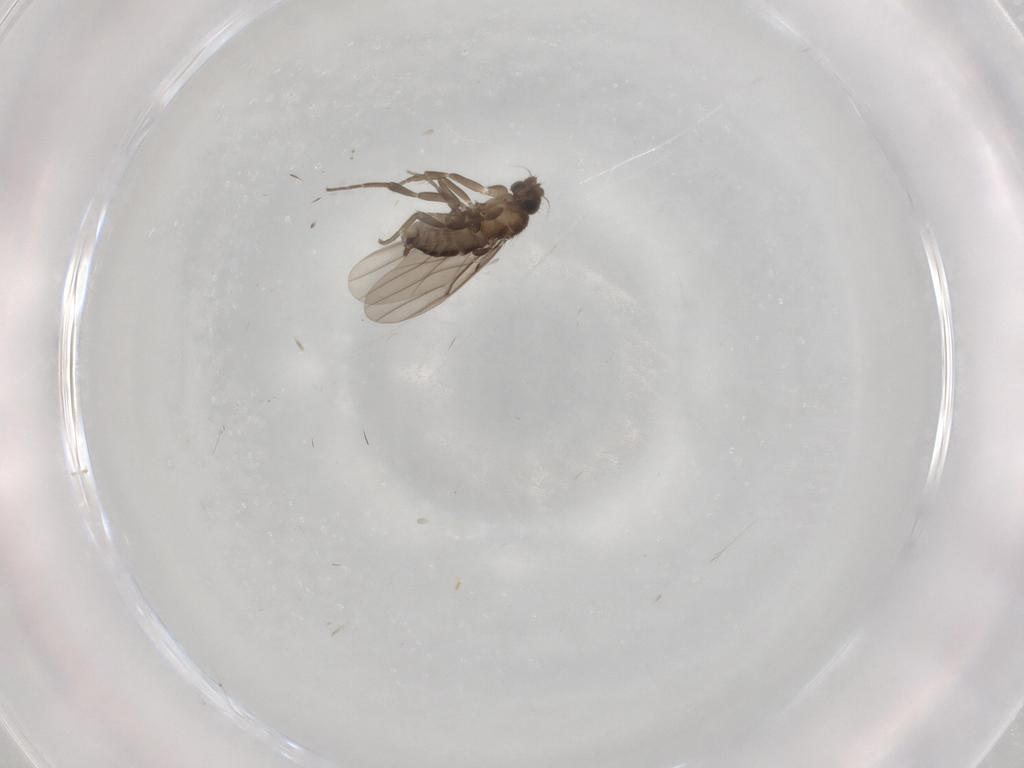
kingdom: Animalia
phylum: Arthropoda
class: Insecta
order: Diptera
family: Phoridae
